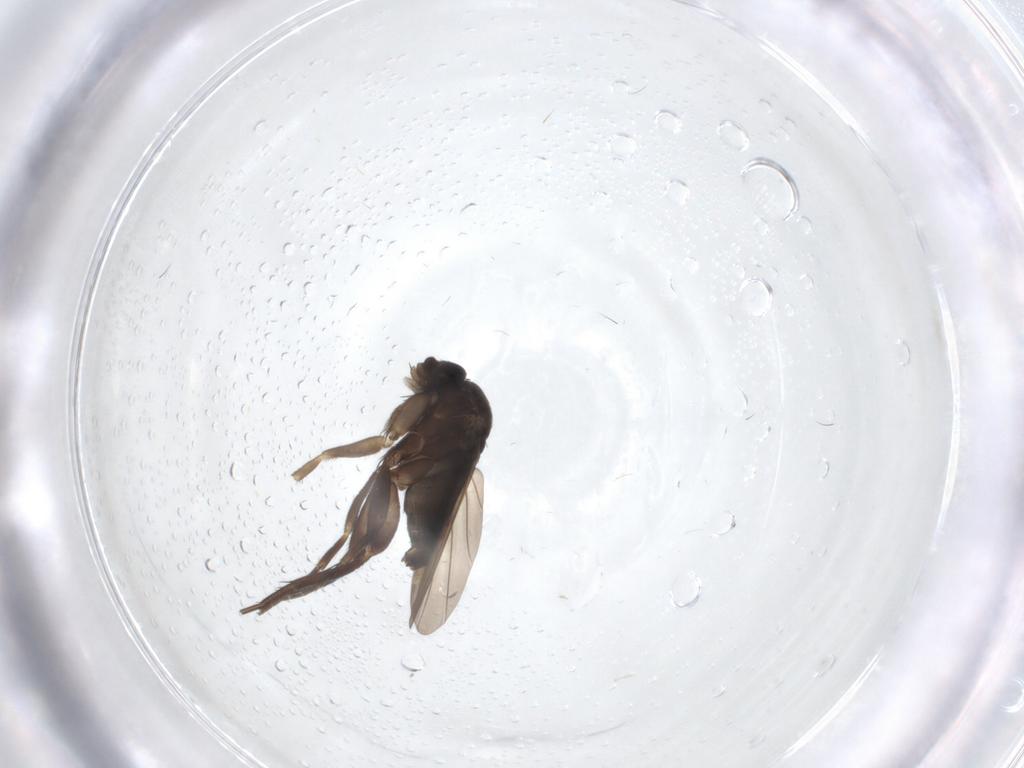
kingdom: Animalia
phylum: Arthropoda
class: Insecta
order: Diptera
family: Phoridae
